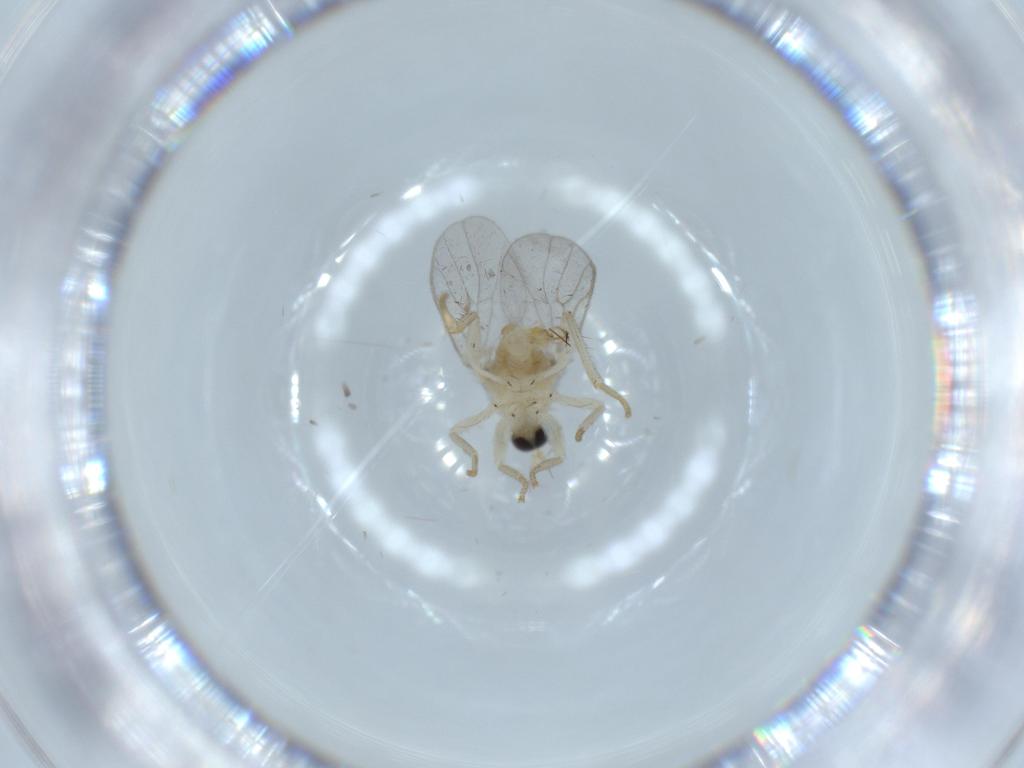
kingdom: Animalia
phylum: Arthropoda
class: Insecta
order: Diptera
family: Hybotidae
